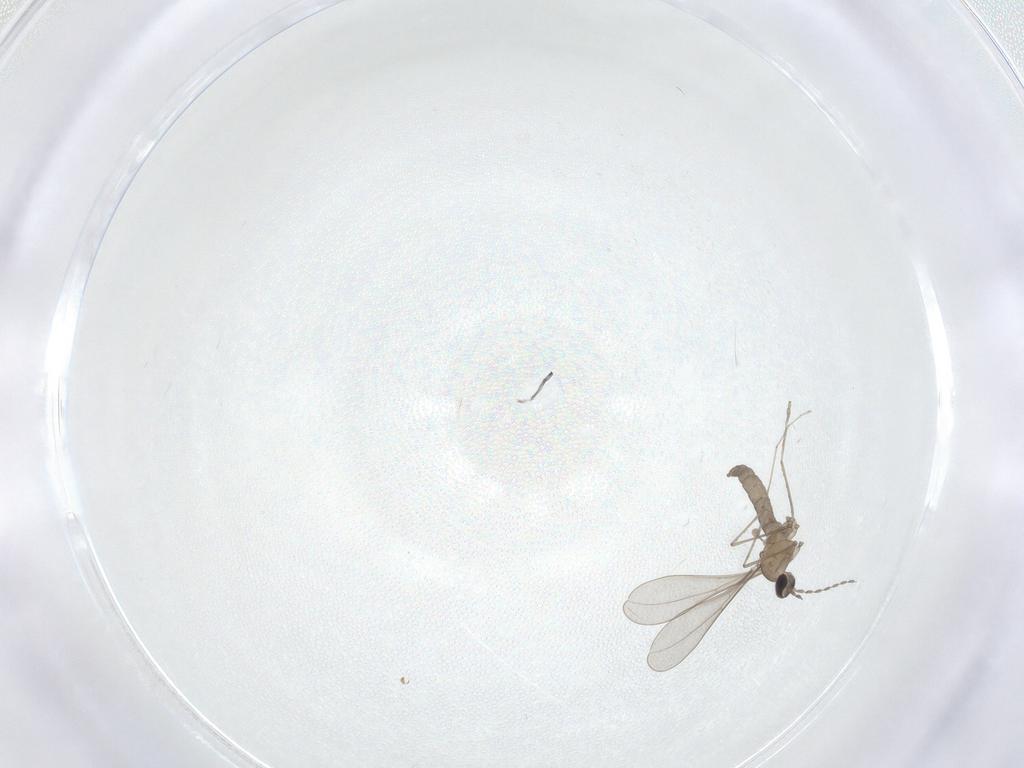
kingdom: Animalia
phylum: Arthropoda
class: Insecta
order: Diptera
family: Cecidomyiidae
